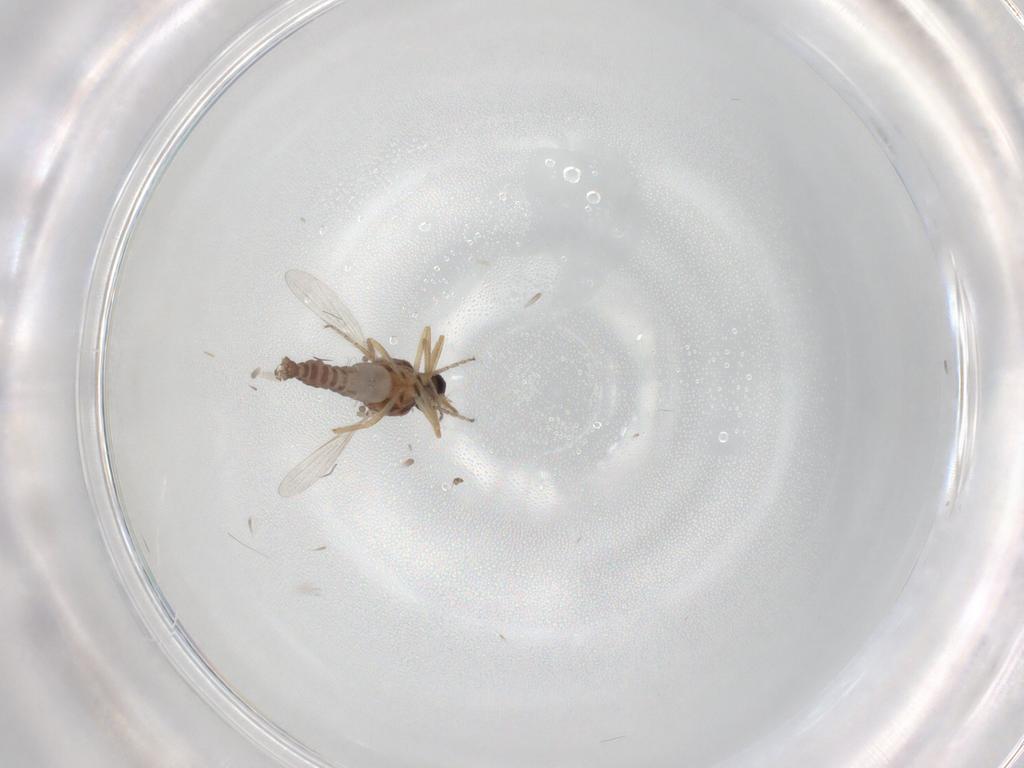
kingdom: Animalia
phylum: Arthropoda
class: Insecta
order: Diptera
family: Ceratopogonidae
